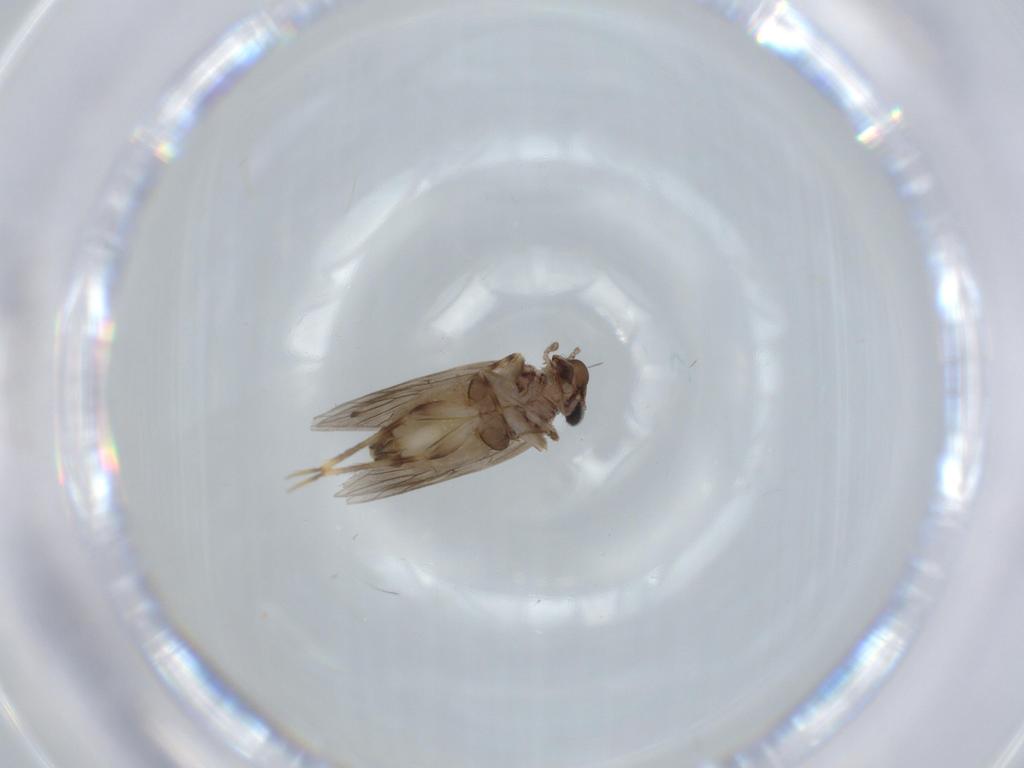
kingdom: Animalia
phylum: Arthropoda
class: Insecta
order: Psocodea
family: Lepidopsocidae
